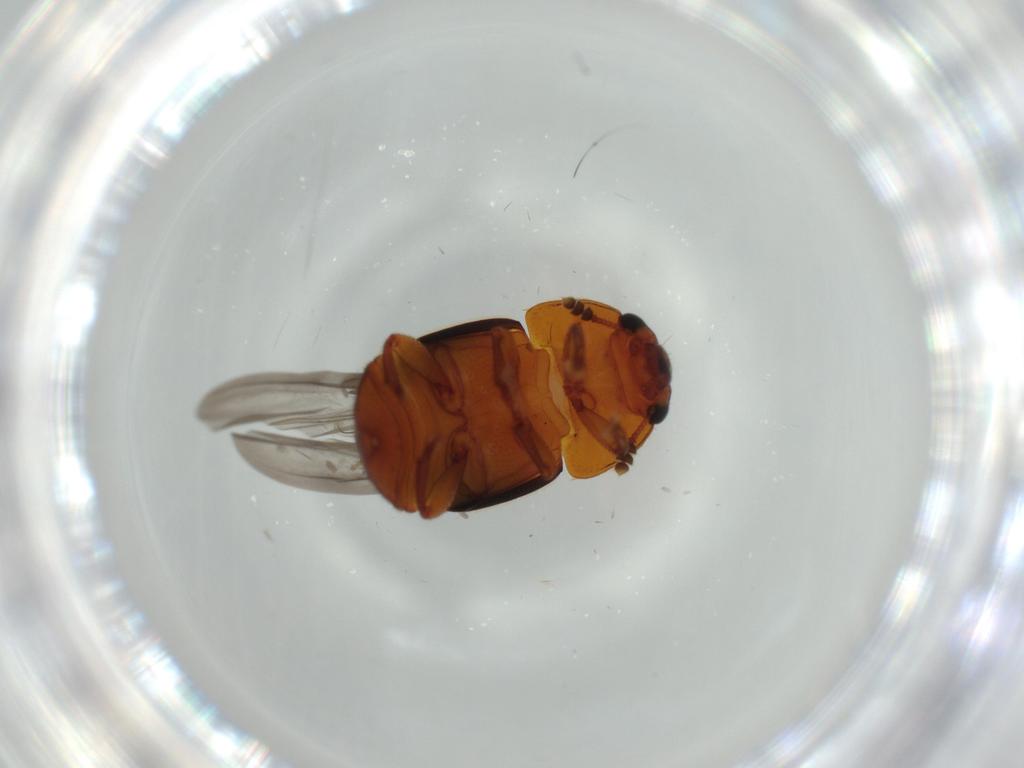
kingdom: Animalia
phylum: Arthropoda
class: Insecta
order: Coleoptera
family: Nitidulidae
